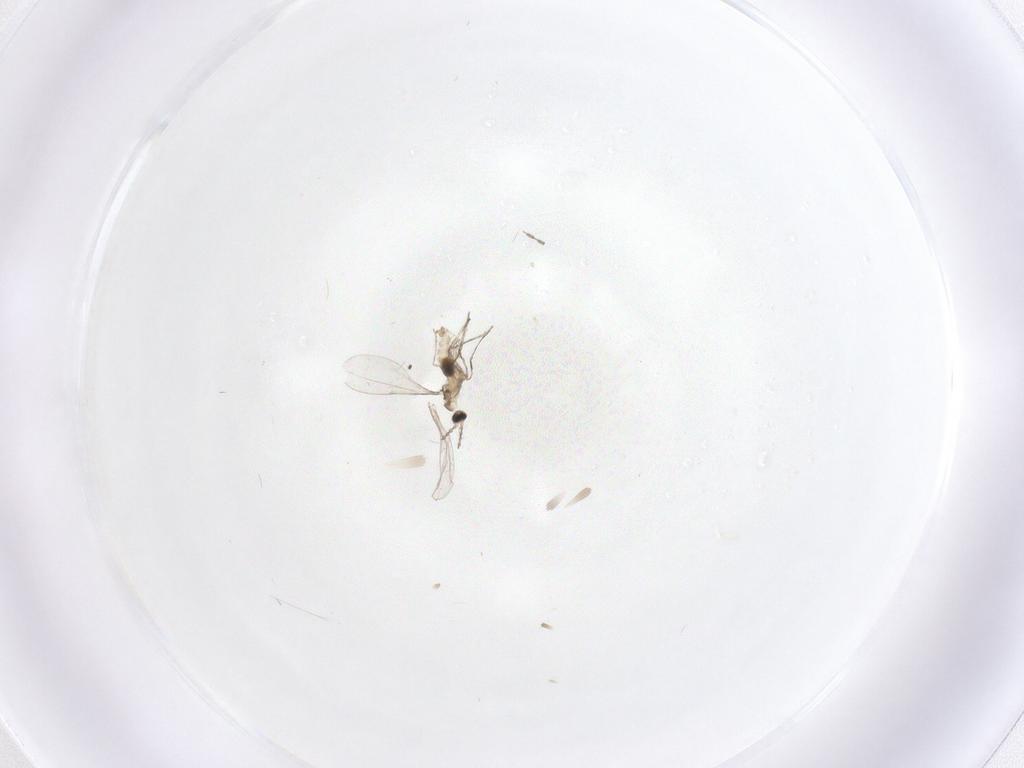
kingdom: Animalia
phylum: Arthropoda
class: Insecta
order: Diptera
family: Cecidomyiidae
